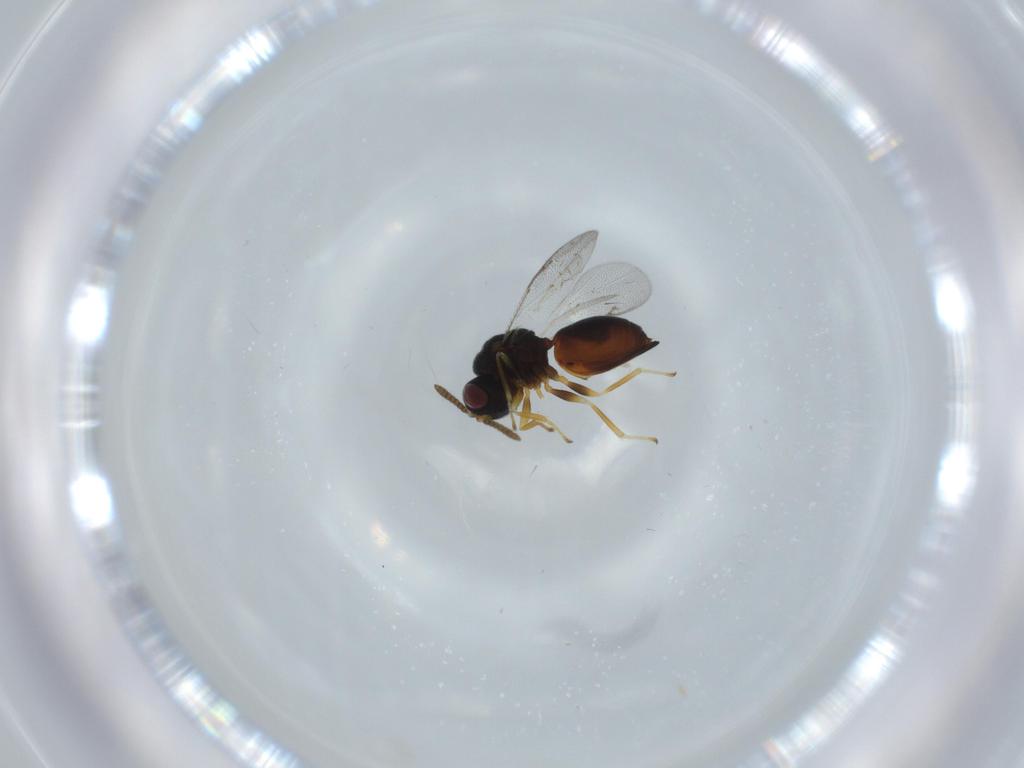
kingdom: Animalia
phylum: Arthropoda
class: Insecta
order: Hymenoptera
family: Eurytomidae
